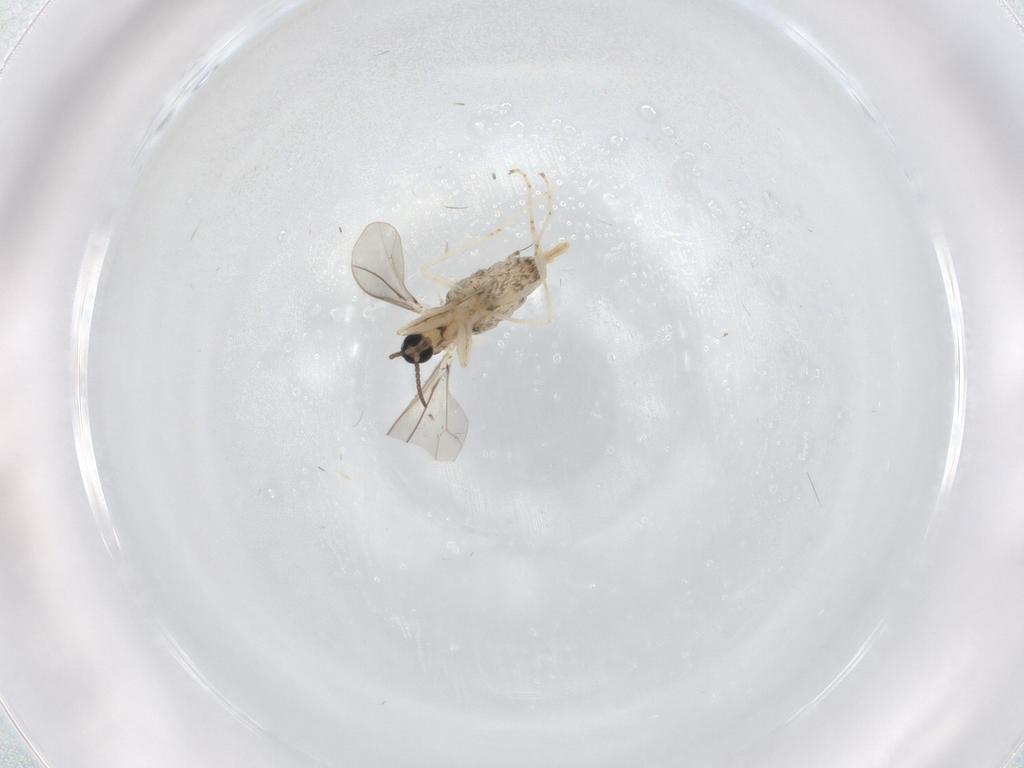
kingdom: Animalia
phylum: Arthropoda
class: Insecta
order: Diptera
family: Cecidomyiidae
